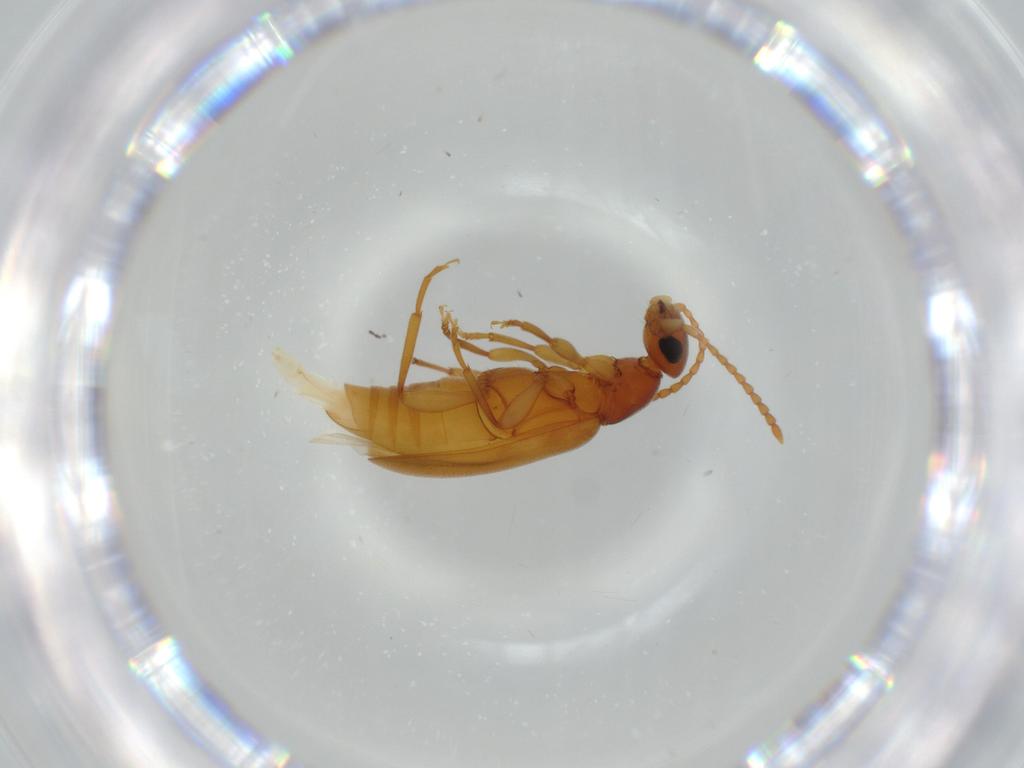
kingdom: Animalia
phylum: Arthropoda
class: Insecta
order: Coleoptera
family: Anthicidae
